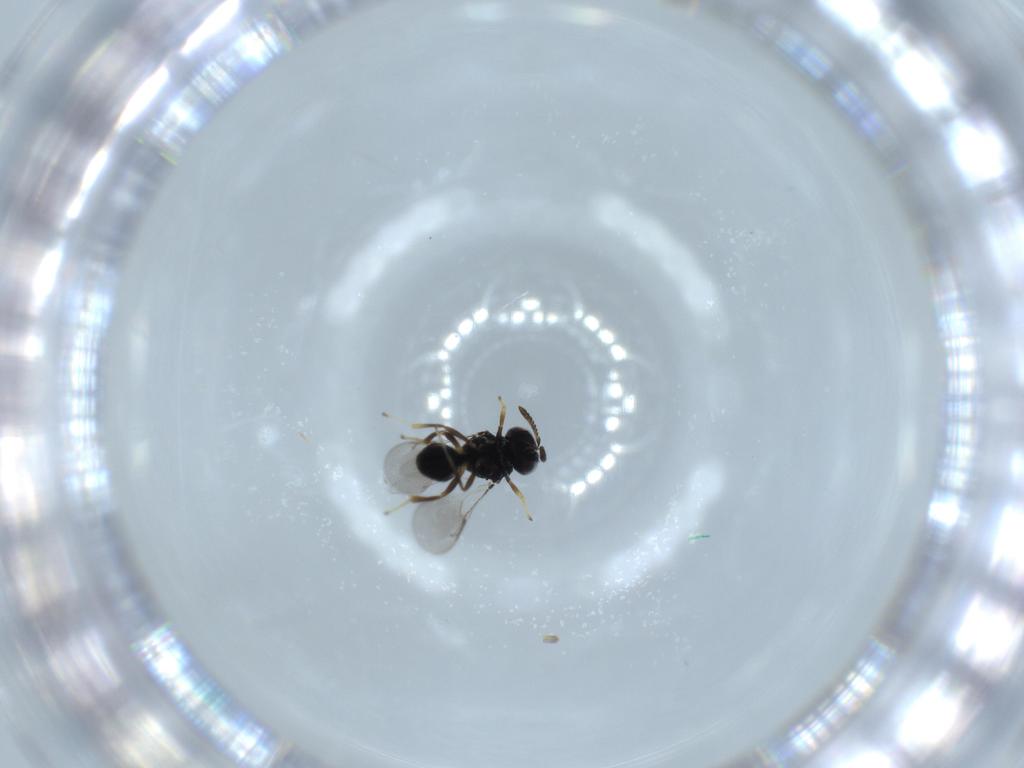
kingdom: Animalia
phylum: Arthropoda
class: Insecta
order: Hymenoptera
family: Pteromalidae
